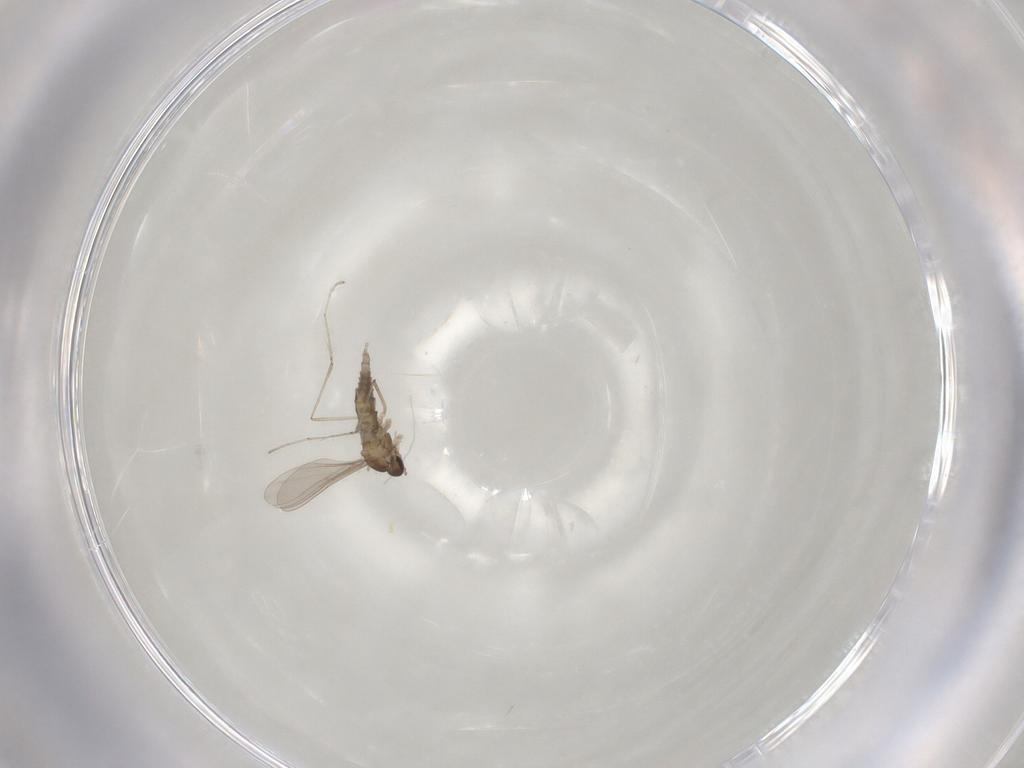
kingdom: Animalia
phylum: Arthropoda
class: Insecta
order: Diptera
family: Cecidomyiidae
